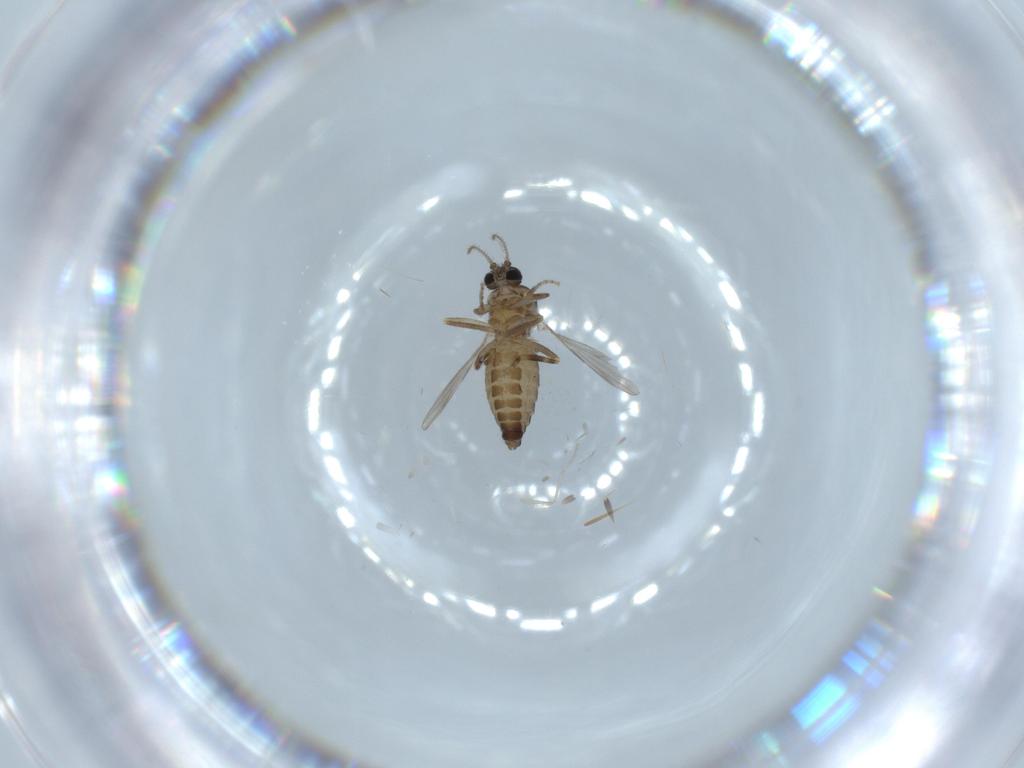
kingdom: Animalia
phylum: Arthropoda
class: Insecta
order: Diptera
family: Ceratopogonidae
